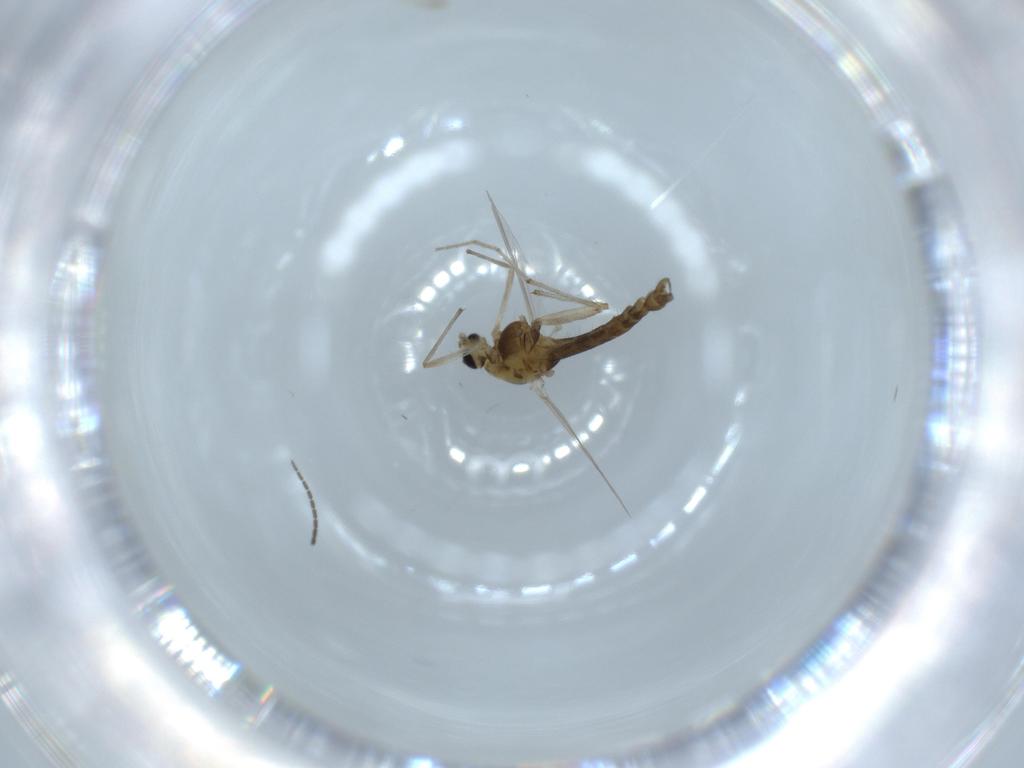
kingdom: Animalia
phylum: Arthropoda
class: Insecta
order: Diptera
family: Chironomidae
